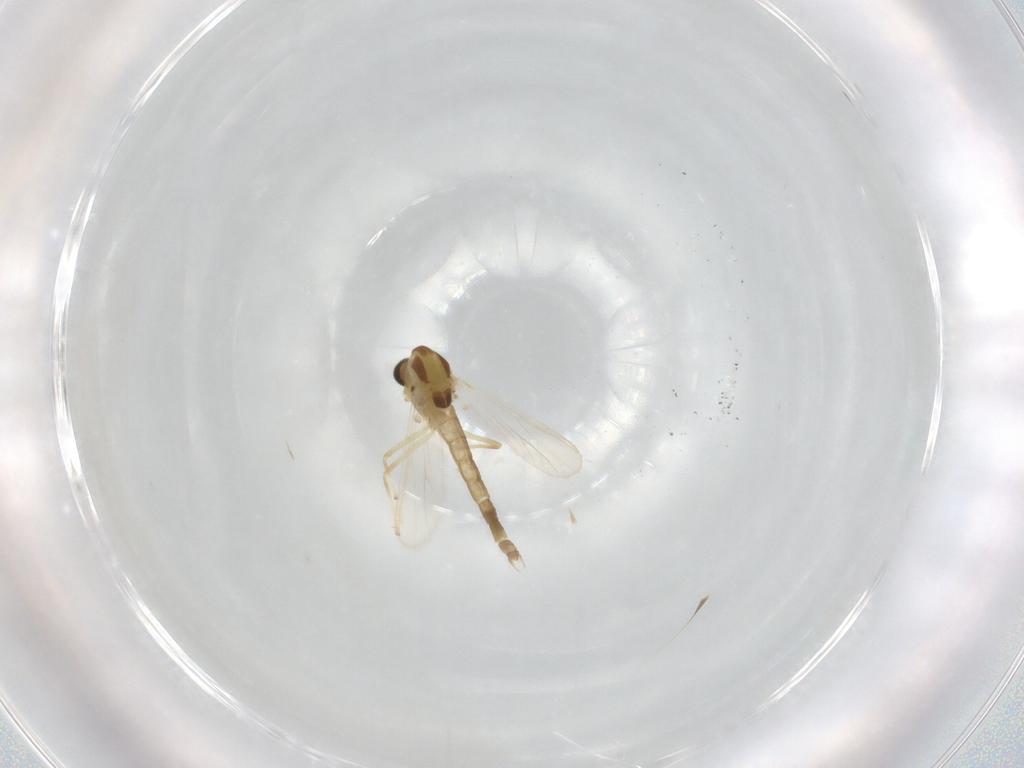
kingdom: Animalia
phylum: Arthropoda
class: Insecta
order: Diptera
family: Chironomidae
